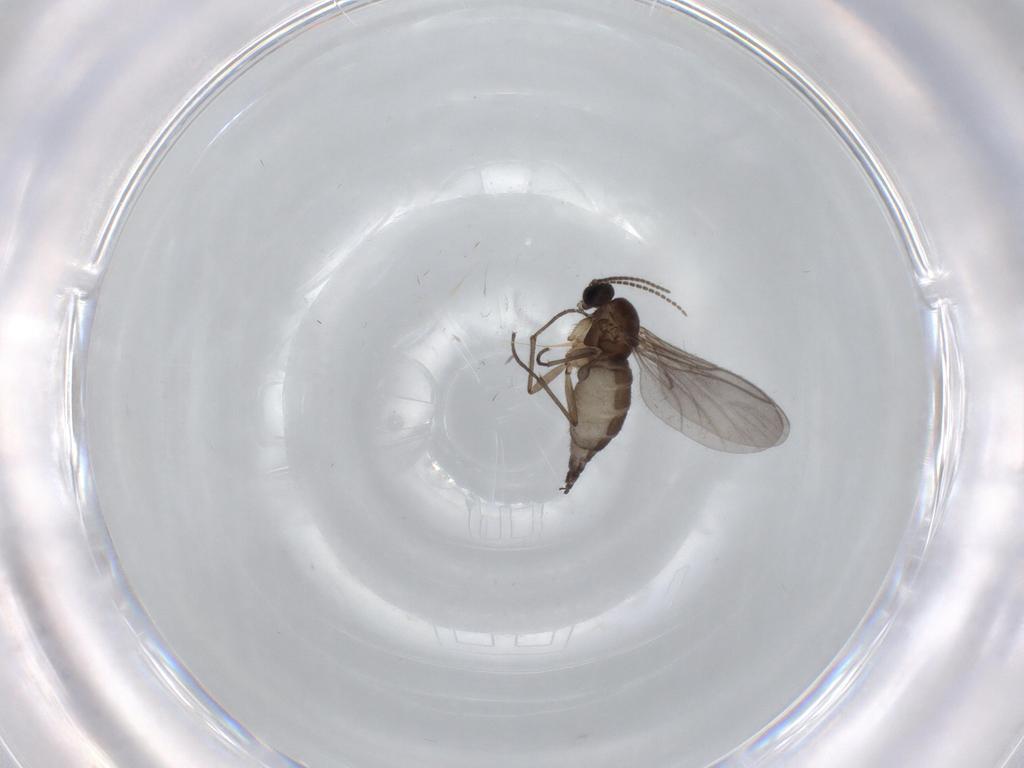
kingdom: Animalia
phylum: Arthropoda
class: Insecta
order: Diptera
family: Sciaridae
